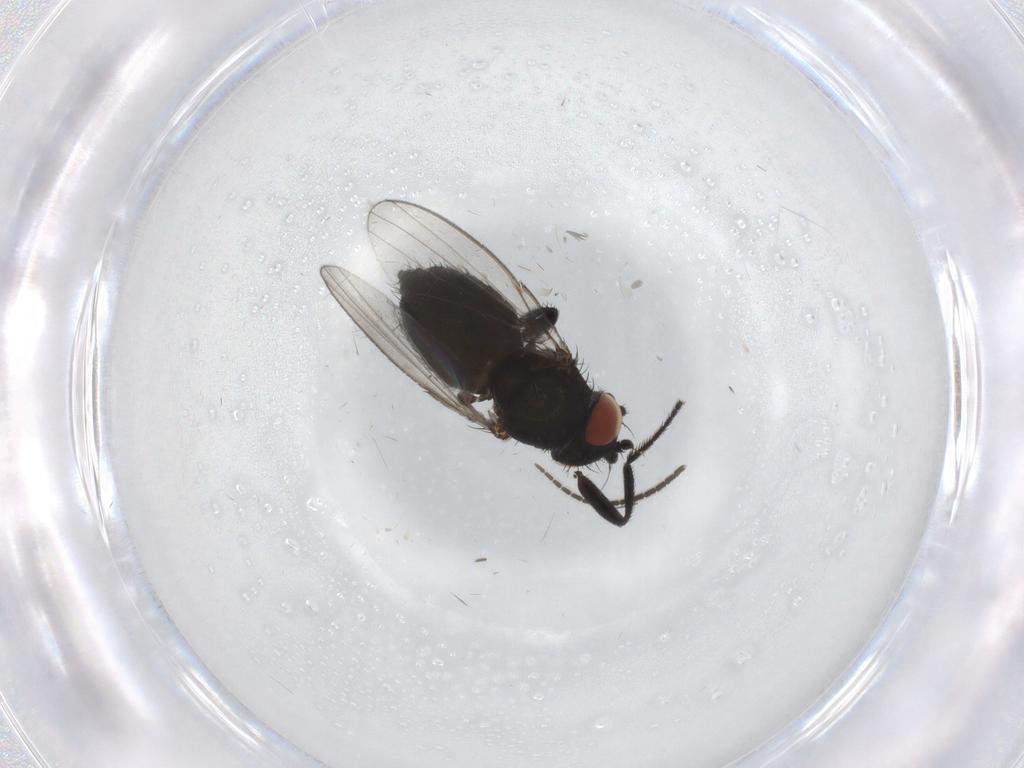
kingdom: Animalia
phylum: Arthropoda
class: Insecta
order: Diptera
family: Milichiidae
